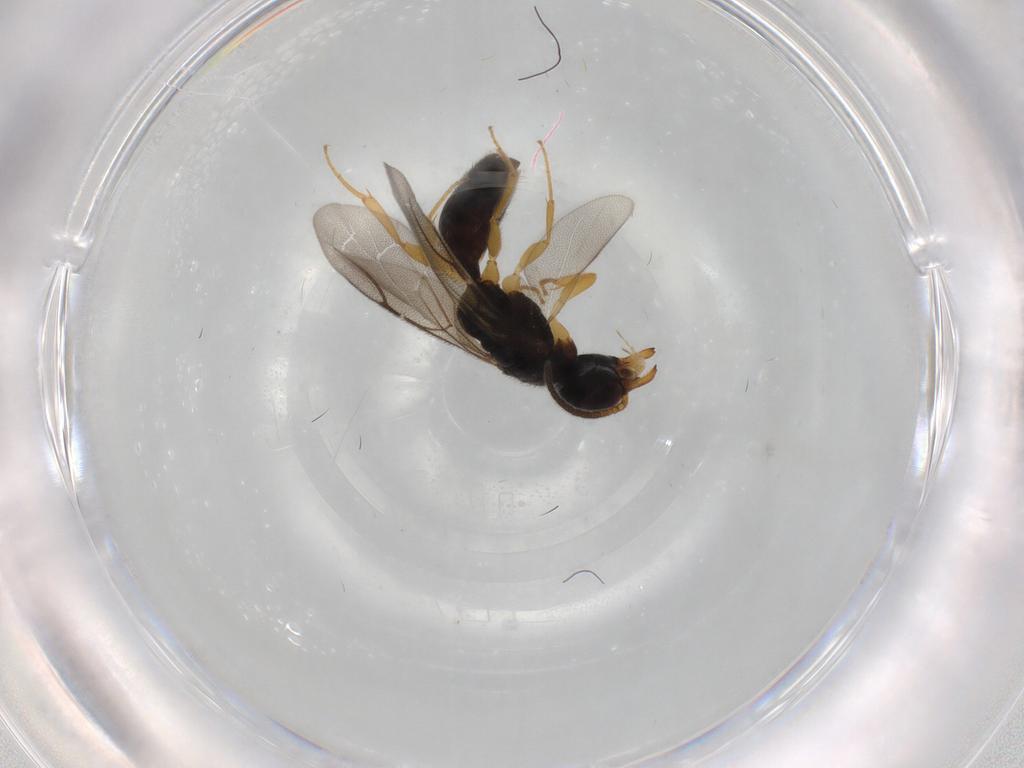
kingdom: Animalia
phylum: Arthropoda
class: Insecta
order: Hymenoptera
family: Bethylidae
